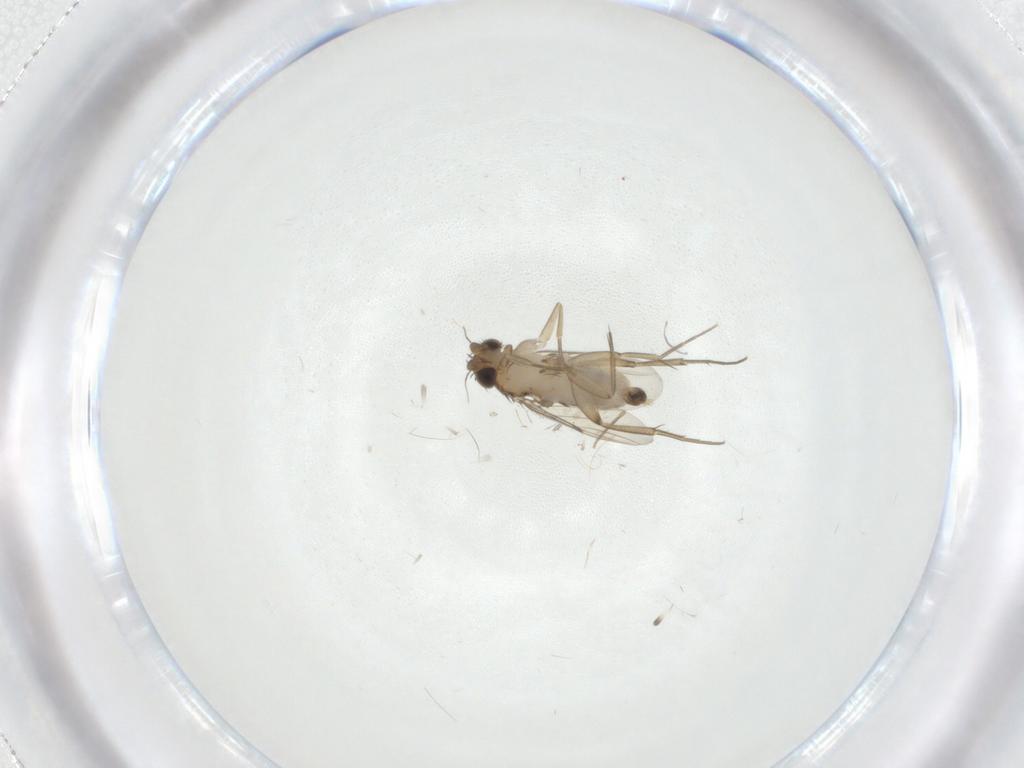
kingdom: Animalia
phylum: Arthropoda
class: Insecta
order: Diptera
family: Phoridae
